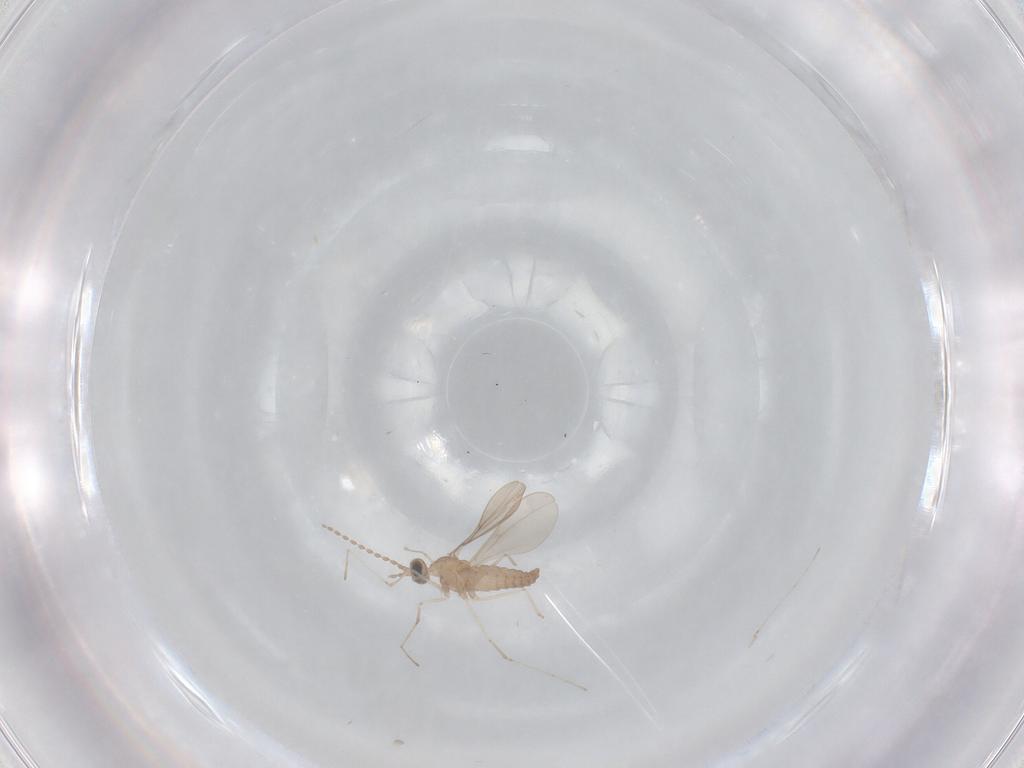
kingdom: Animalia
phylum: Arthropoda
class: Insecta
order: Diptera
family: Cecidomyiidae
